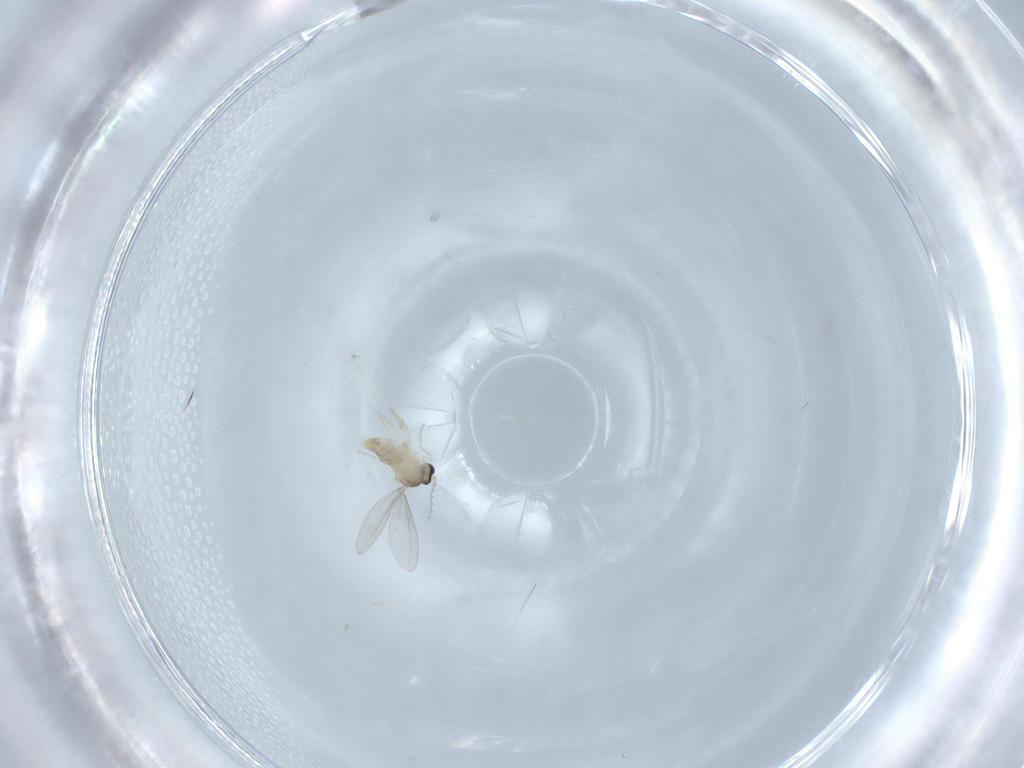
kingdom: Animalia
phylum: Arthropoda
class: Insecta
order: Diptera
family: Cecidomyiidae
